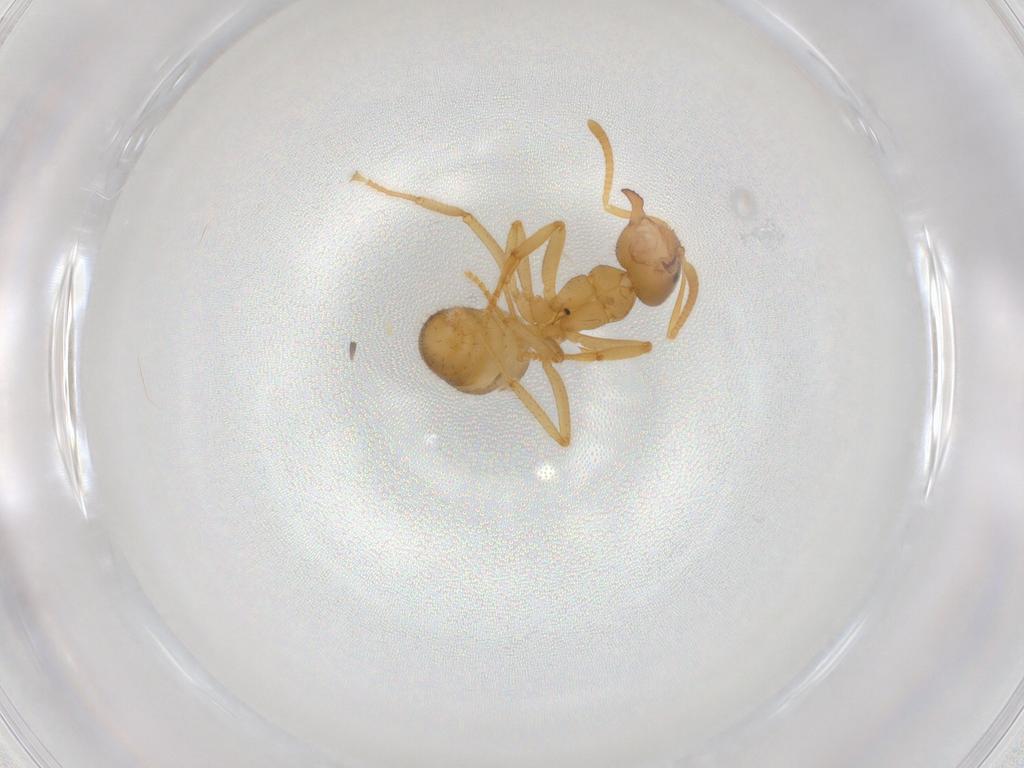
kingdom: Animalia
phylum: Arthropoda
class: Insecta
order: Hymenoptera
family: Formicidae
